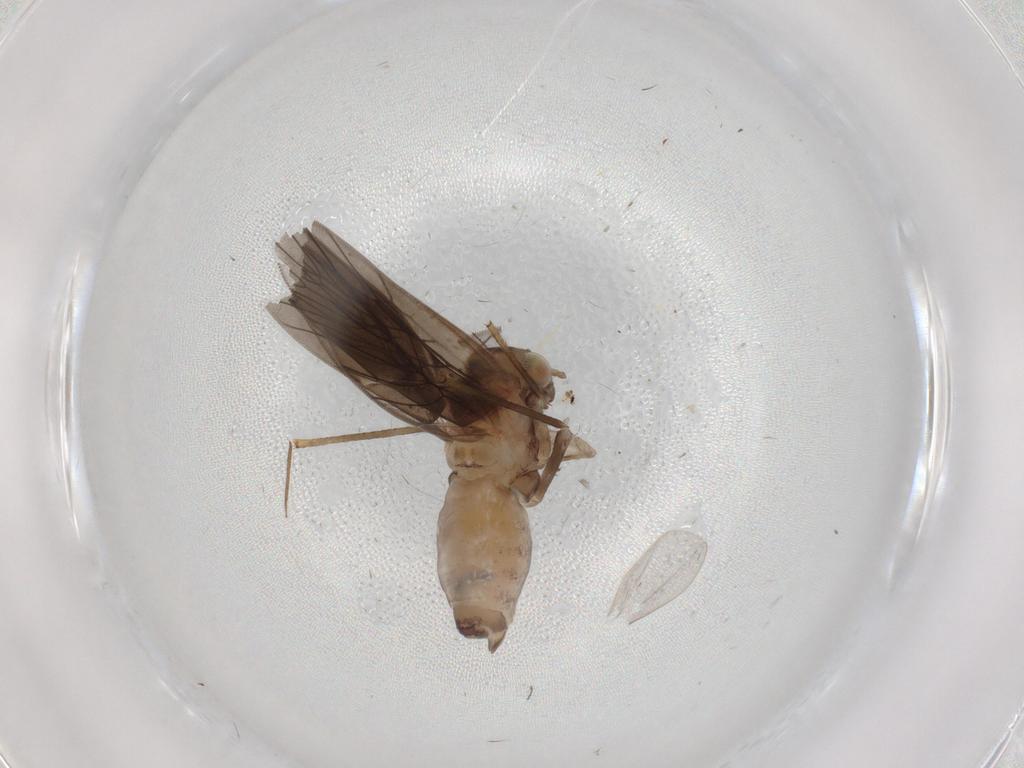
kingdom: Animalia
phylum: Arthropoda
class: Insecta
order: Psocodea
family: Lepidopsocidae
